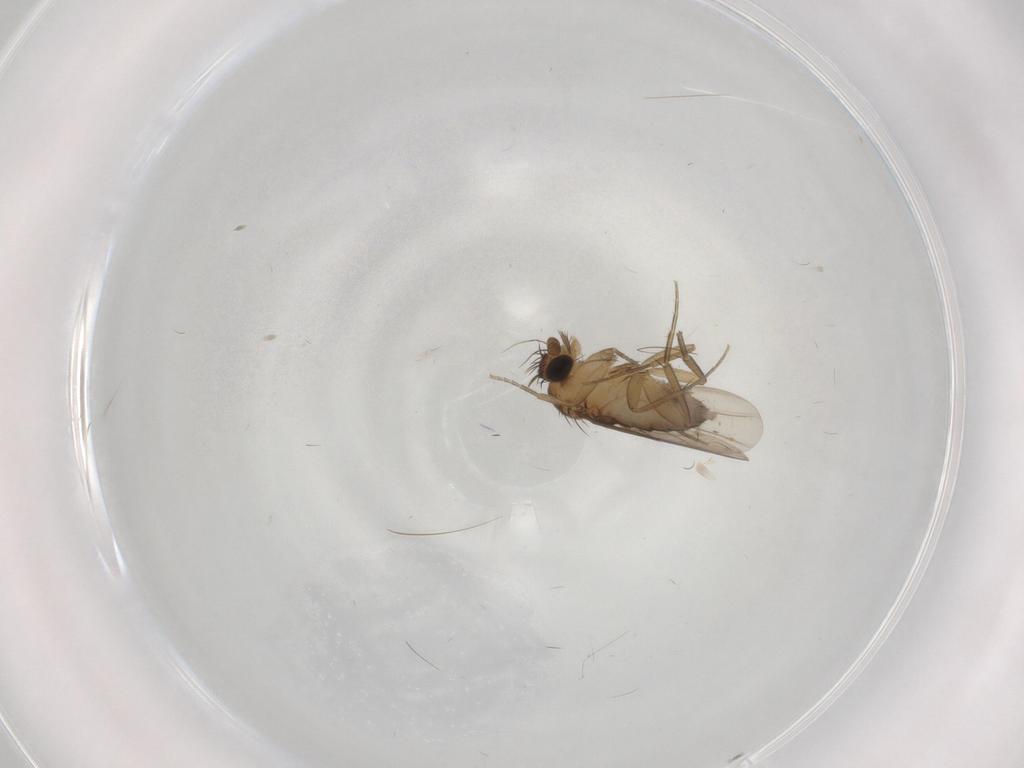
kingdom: Animalia
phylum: Arthropoda
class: Insecta
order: Diptera
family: Phoridae
